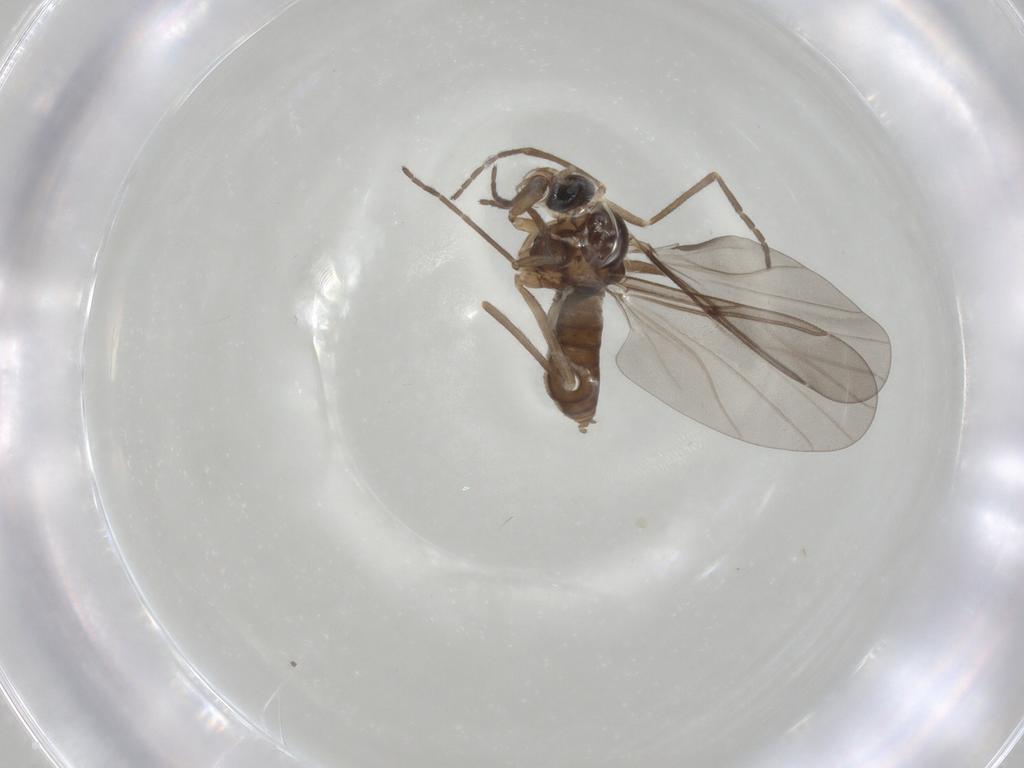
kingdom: Animalia
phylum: Arthropoda
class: Insecta
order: Diptera
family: Cecidomyiidae
